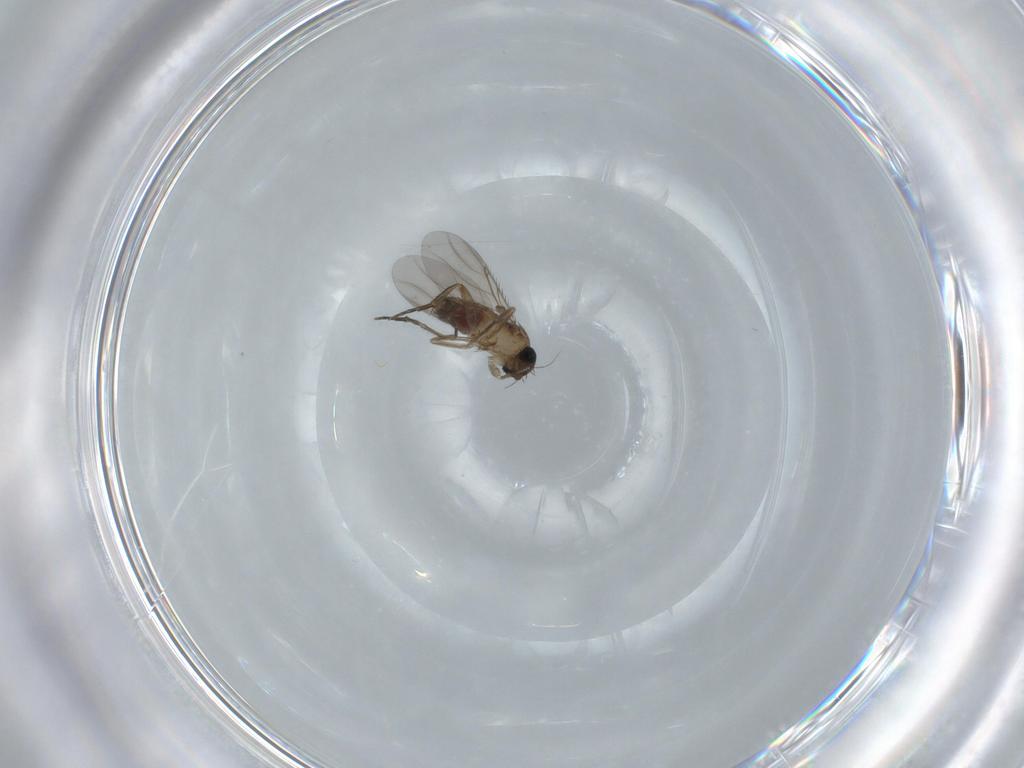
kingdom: Animalia
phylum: Arthropoda
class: Insecta
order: Diptera
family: Phoridae
